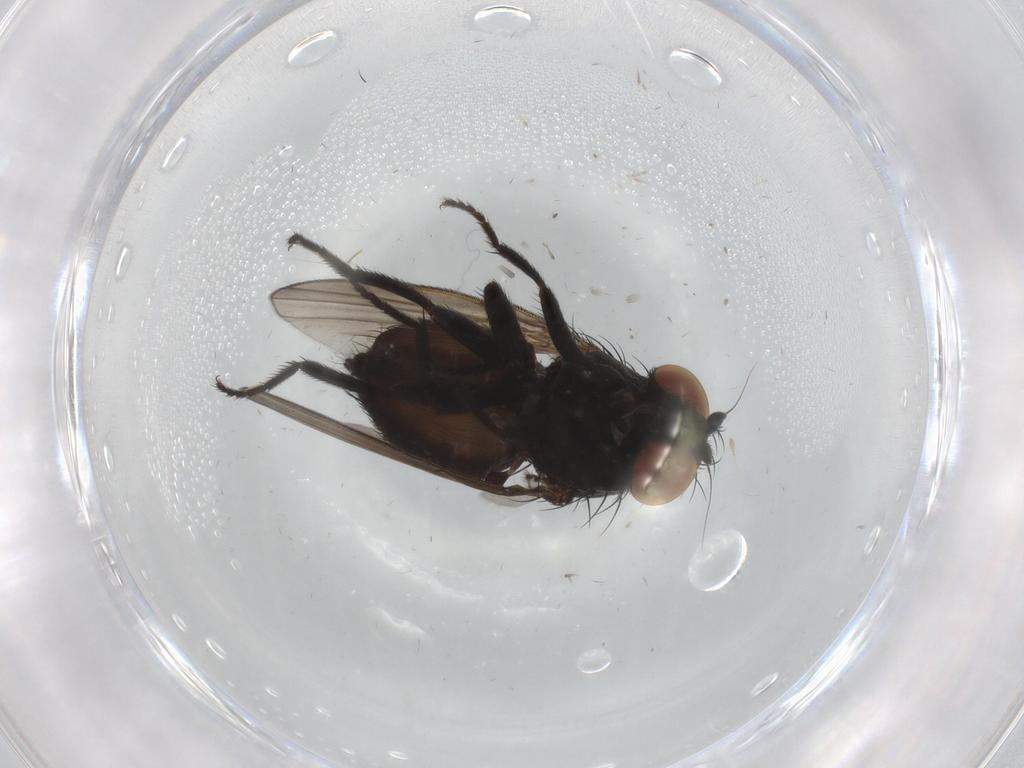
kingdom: Animalia
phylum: Arthropoda
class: Insecta
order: Diptera
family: Milichiidae
